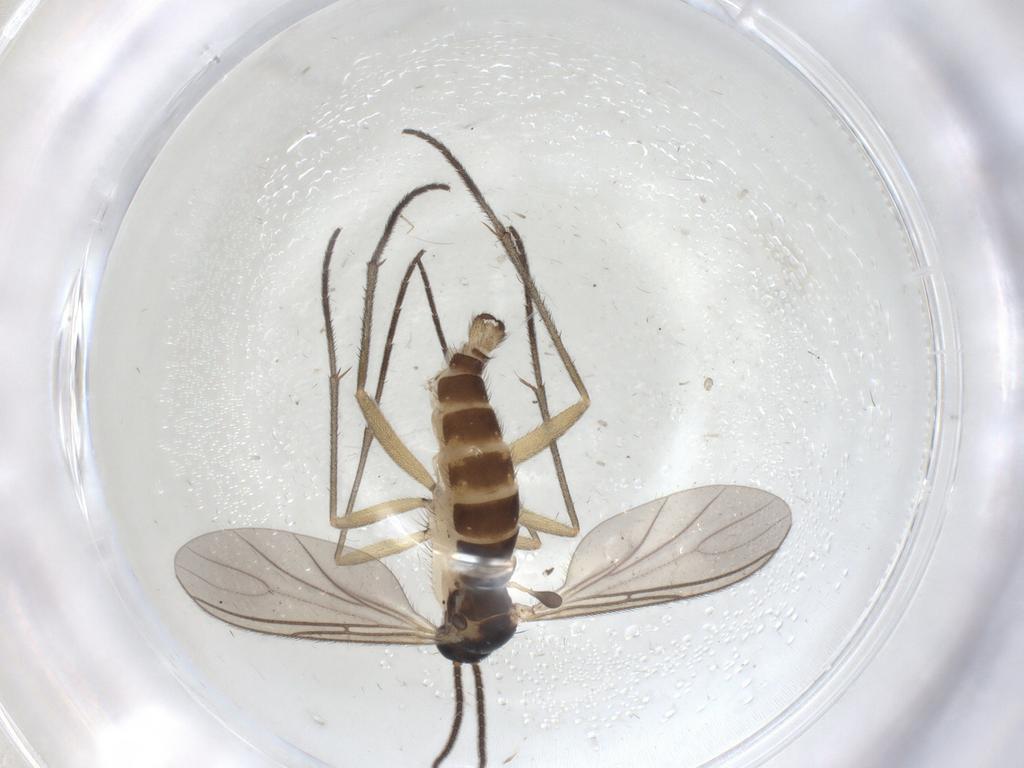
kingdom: Animalia
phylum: Arthropoda
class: Insecta
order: Diptera
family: Sciaridae
